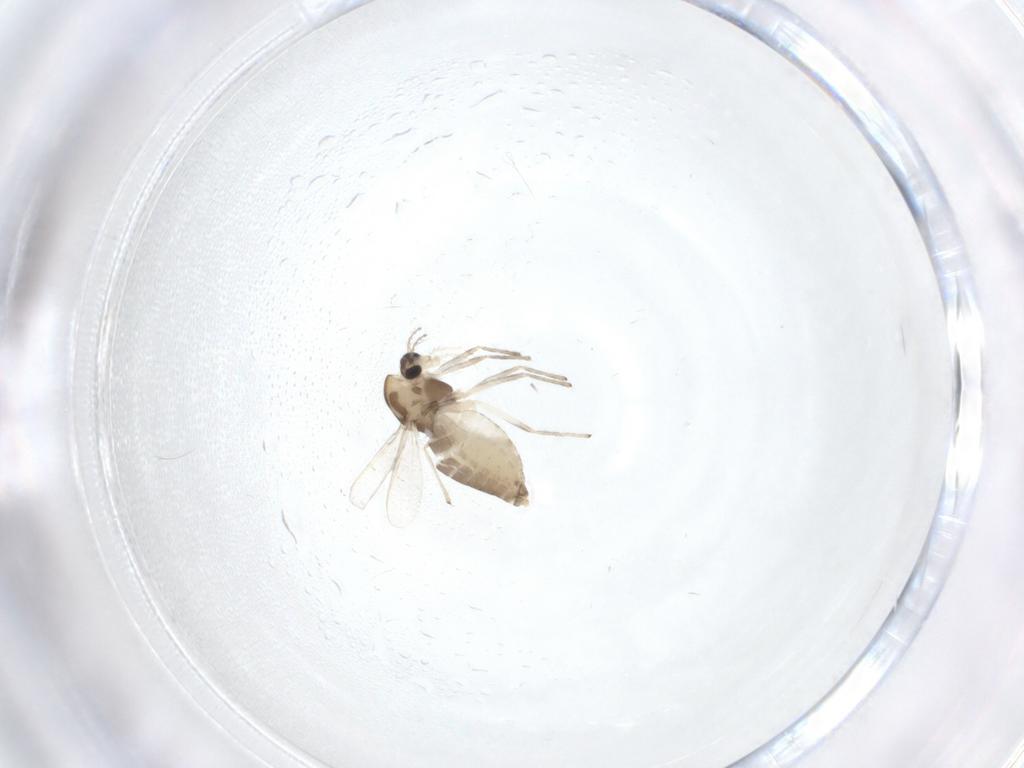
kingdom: Animalia
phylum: Arthropoda
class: Insecta
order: Diptera
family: Chironomidae
